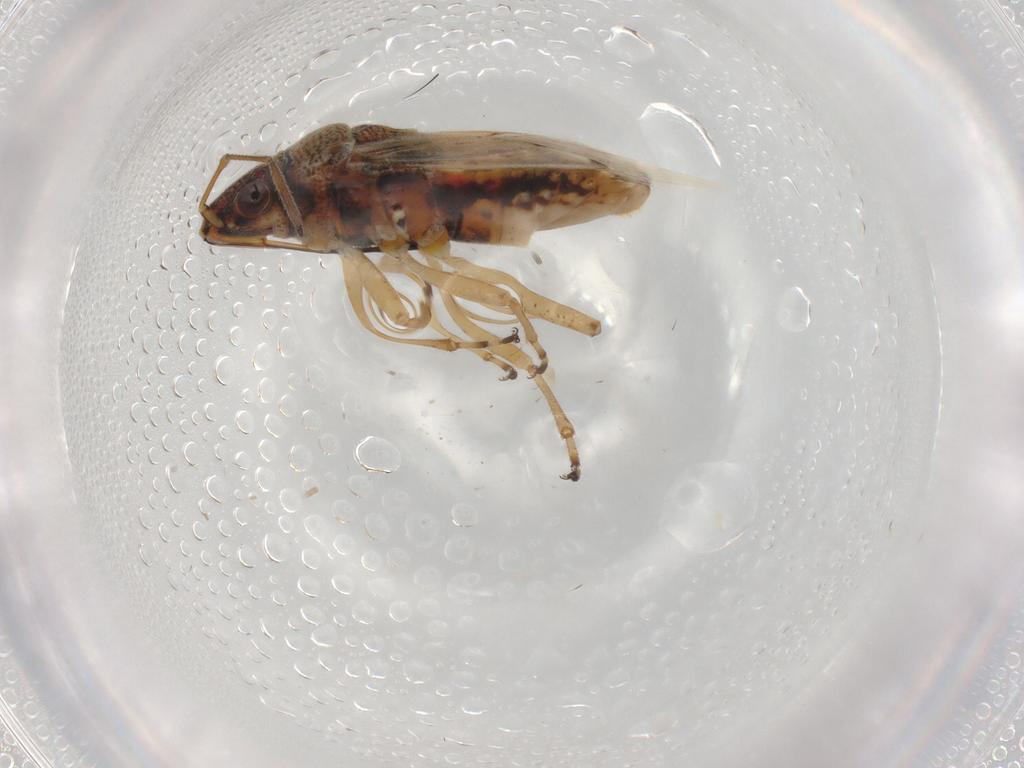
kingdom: Animalia
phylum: Arthropoda
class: Insecta
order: Hemiptera
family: Lygaeidae
